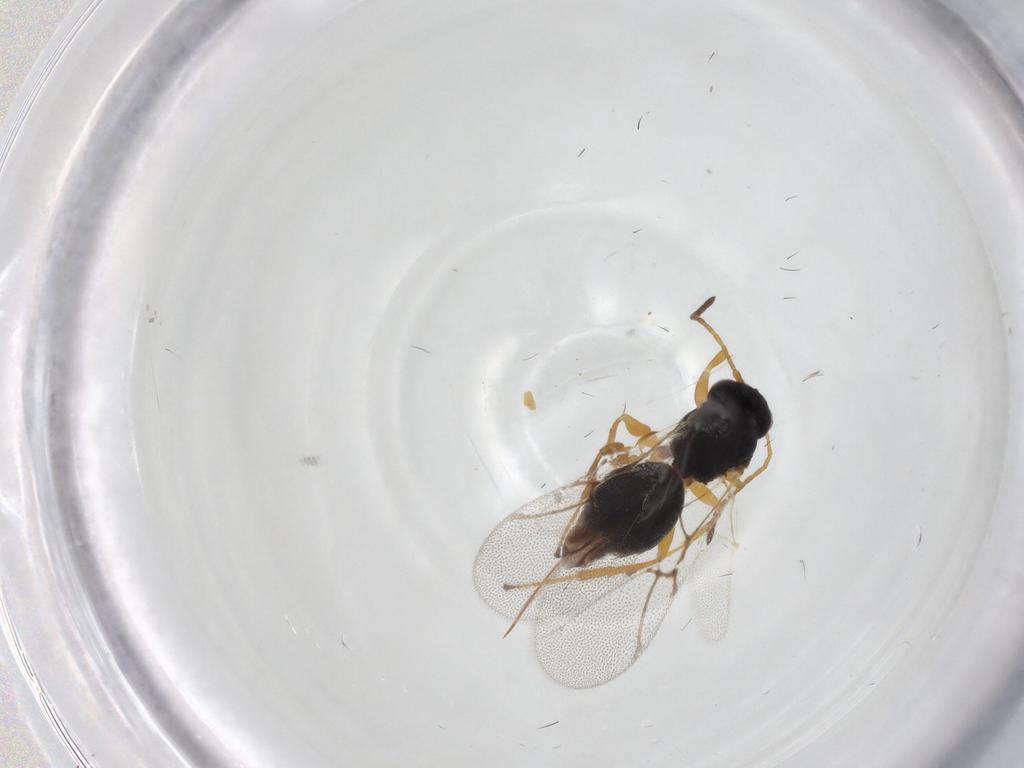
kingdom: Animalia
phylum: Arthropoda
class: Insecta
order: Hymenoptera
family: Cynipidae
